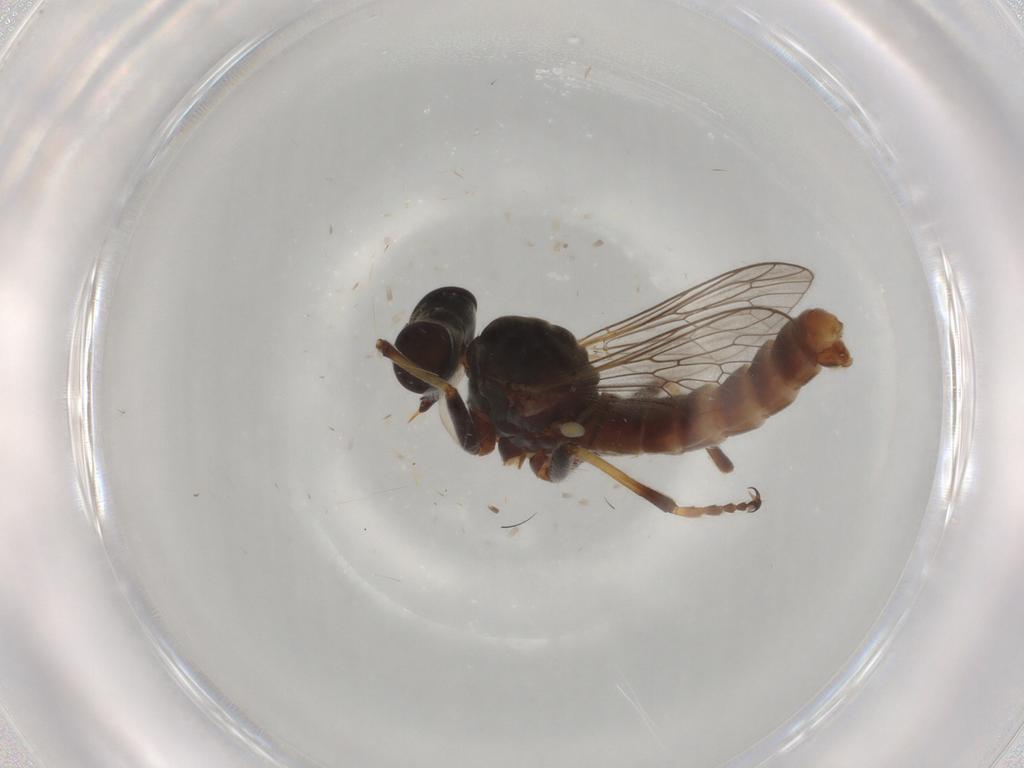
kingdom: Animalia
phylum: Arthropoda
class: Insecta
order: Diptera
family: Chloropidae
